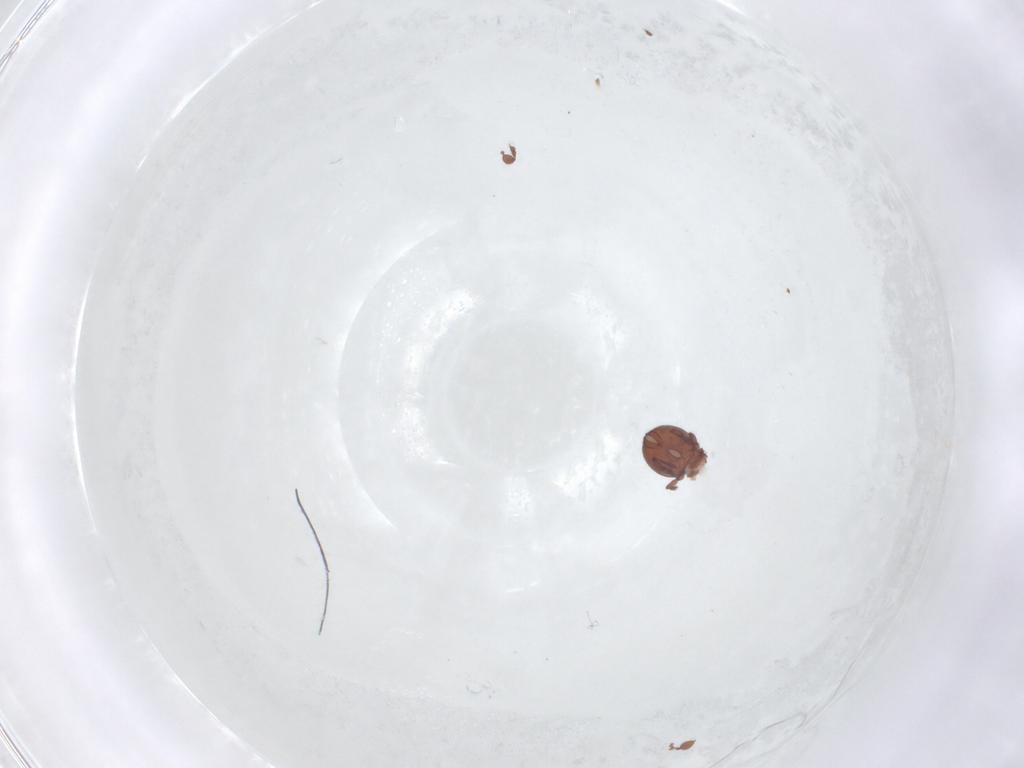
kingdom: Animalia
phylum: Arthropoda
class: Arachnida
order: Sarcoptiformes
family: Eremaeidae
